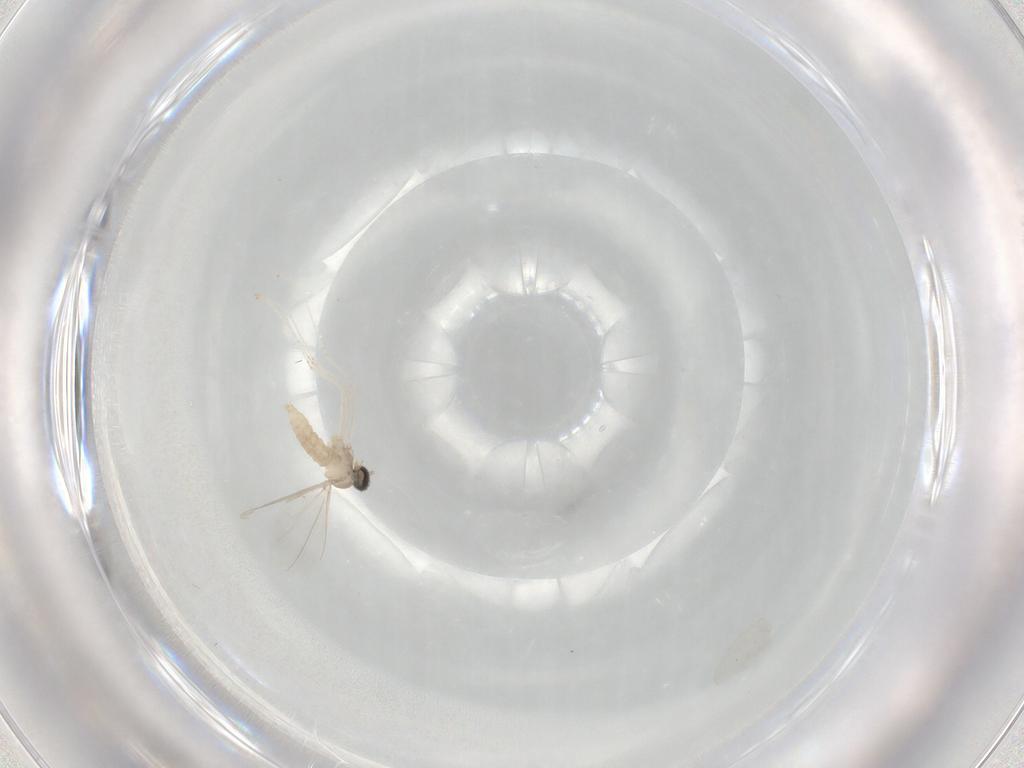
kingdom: Animalia
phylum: Arthropoda
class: Insecta
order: Diptera
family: Cecidomyiidae
